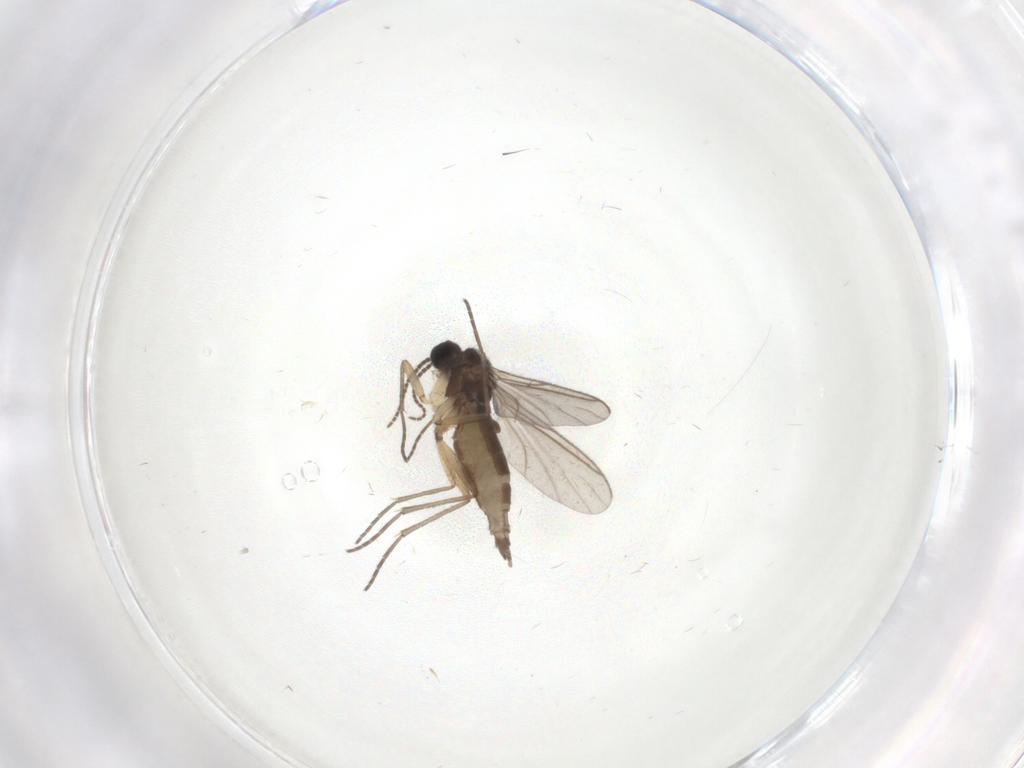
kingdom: Animalia
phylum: Arthropoda
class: Insecta
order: Diptera
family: Sciaridae
